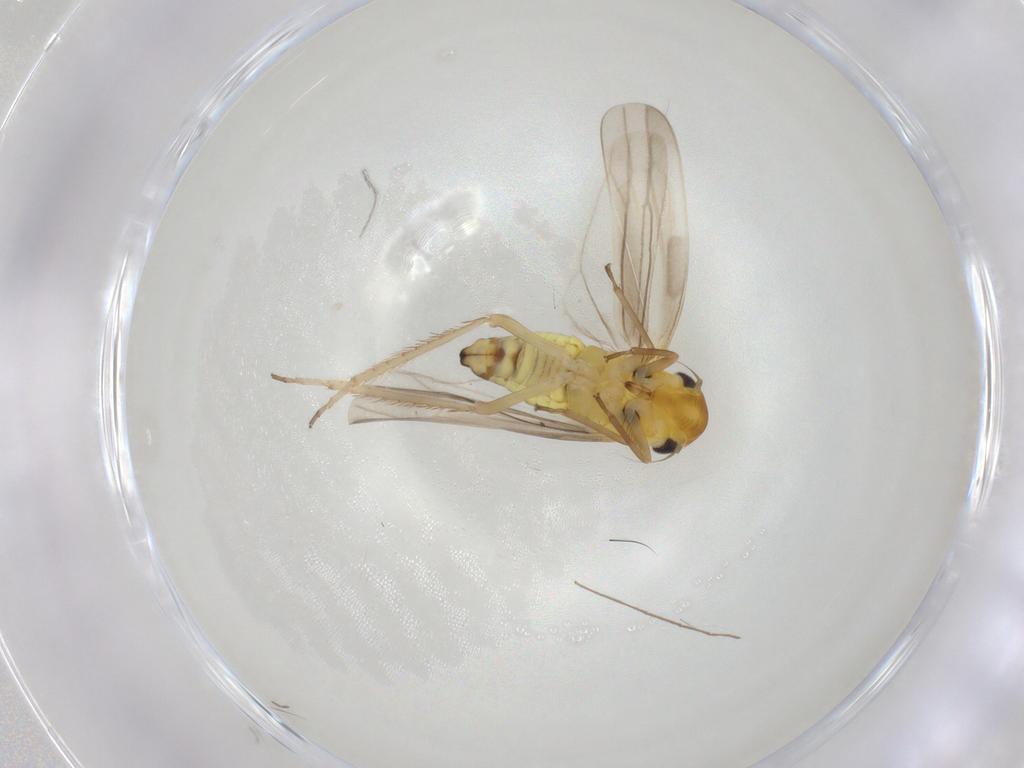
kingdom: Animalia
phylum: Arthropoda
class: Insecta
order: Hemiptera
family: Cicadellidae
